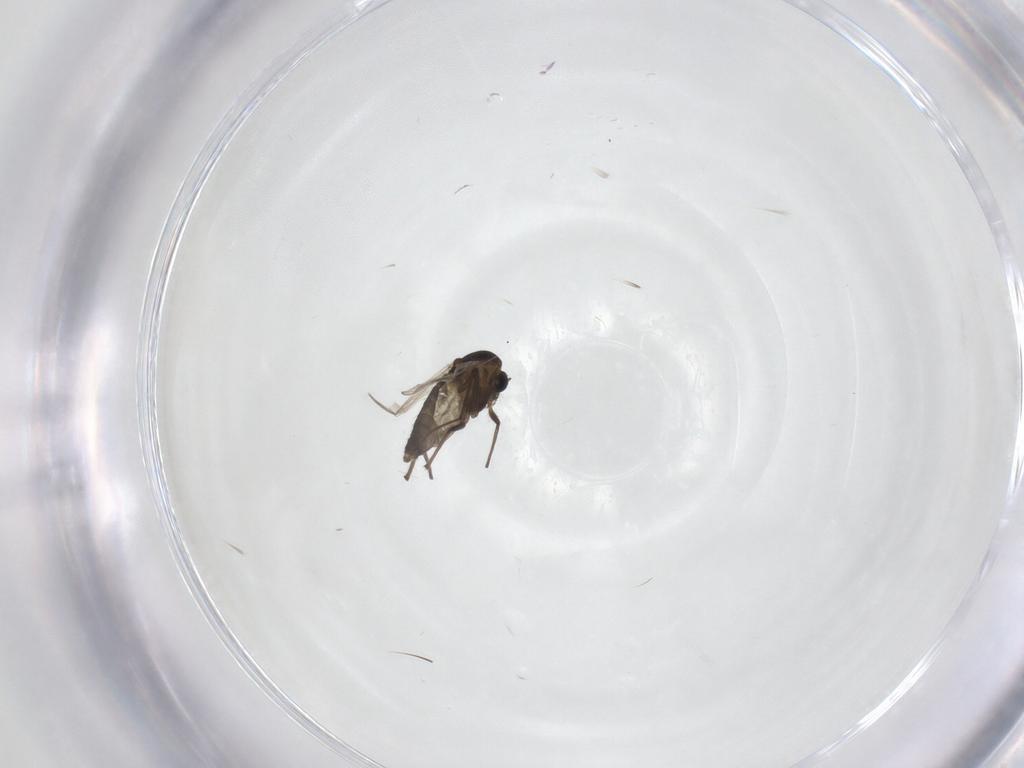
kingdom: Animalia
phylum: Arthropoda
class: Insecta
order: Diptera
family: Chironomidae
